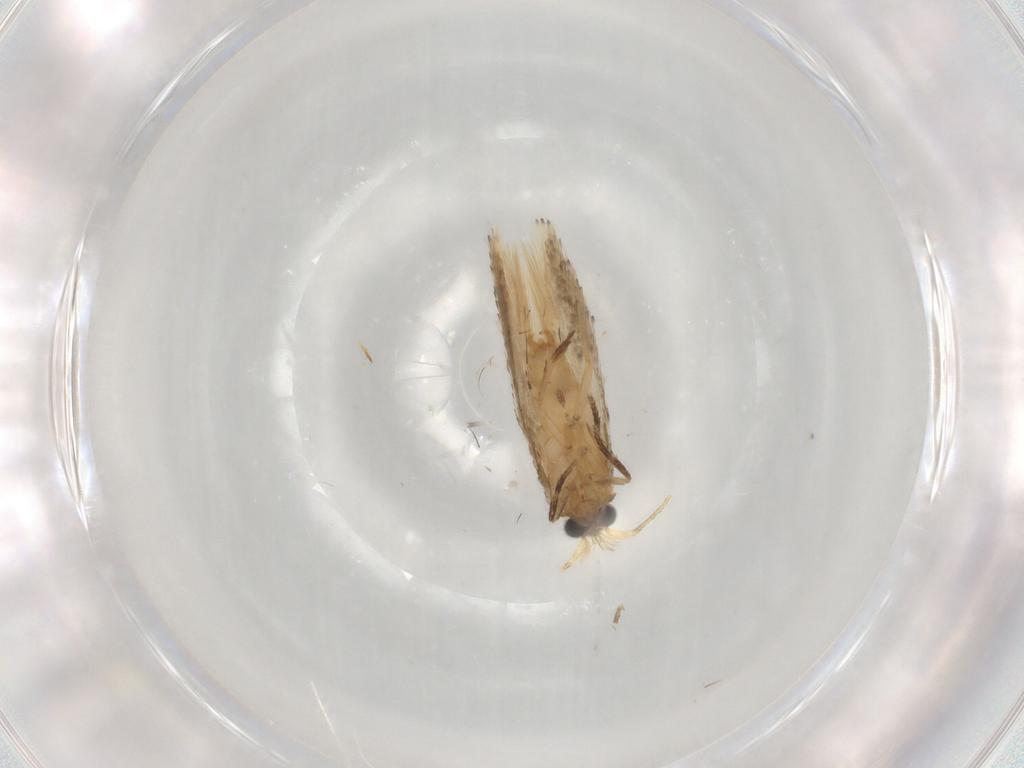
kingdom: Animalia
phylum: Arthropoda
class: Insecta
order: Lepidoptera
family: Nepticulidae
